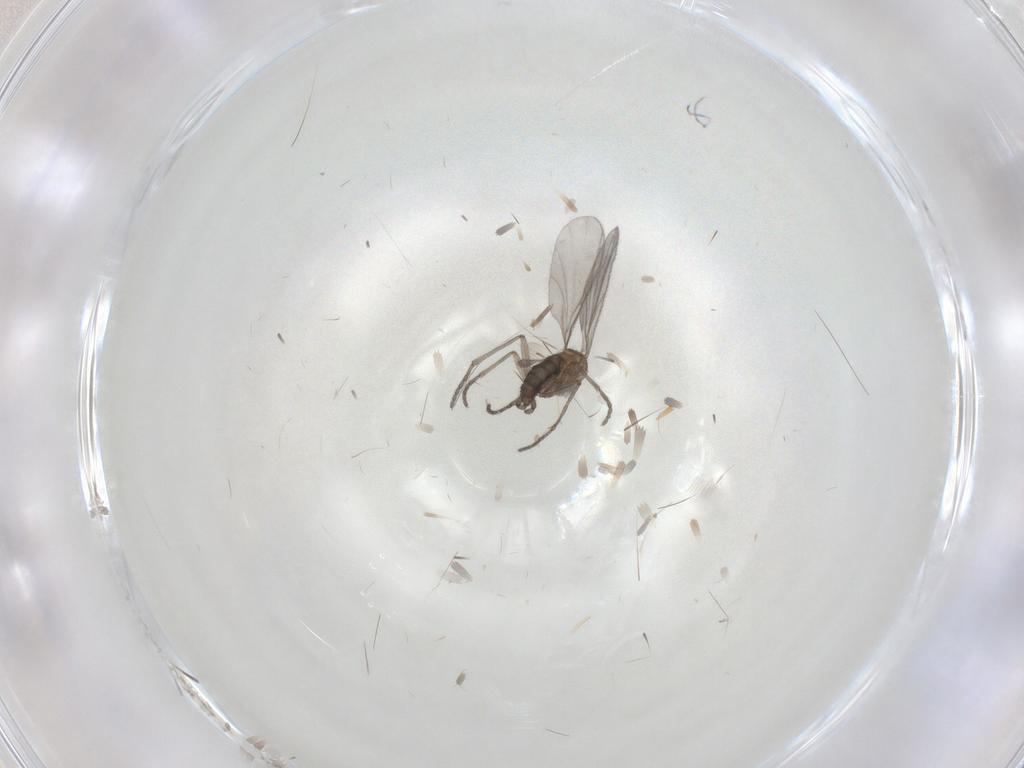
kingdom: Animalia
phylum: Arthropoda
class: Insecta
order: Diptera
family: Sciaridae
